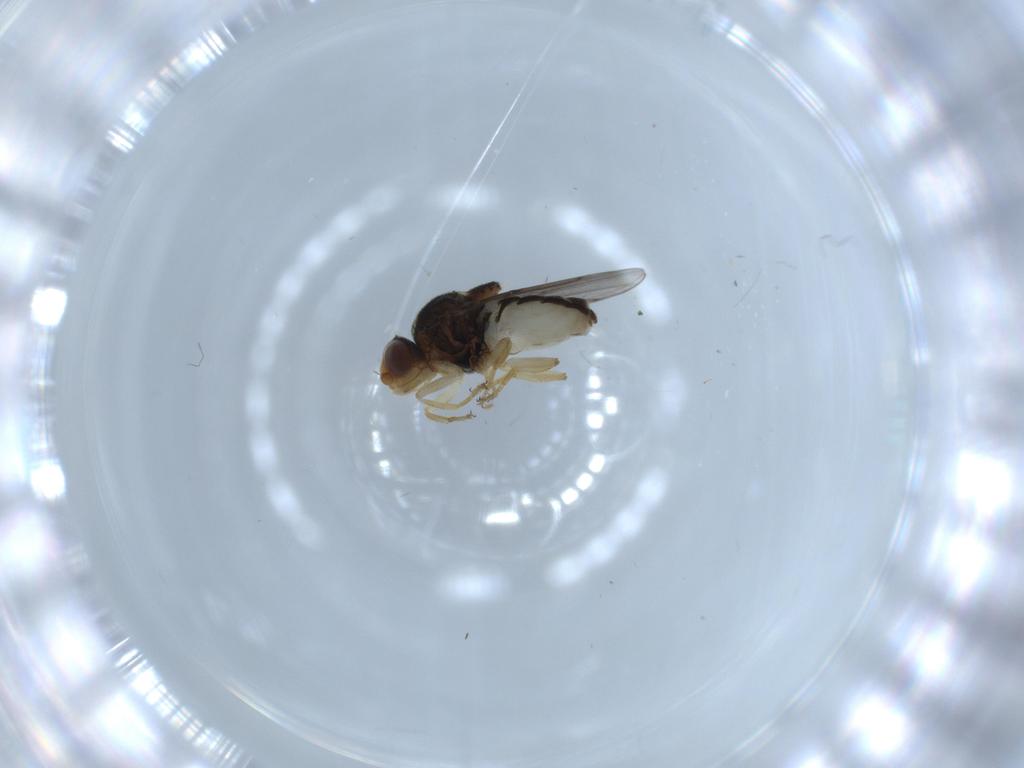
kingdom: Animalia
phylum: Arthropoda
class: Insecta
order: Diptera
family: Chloropidae
